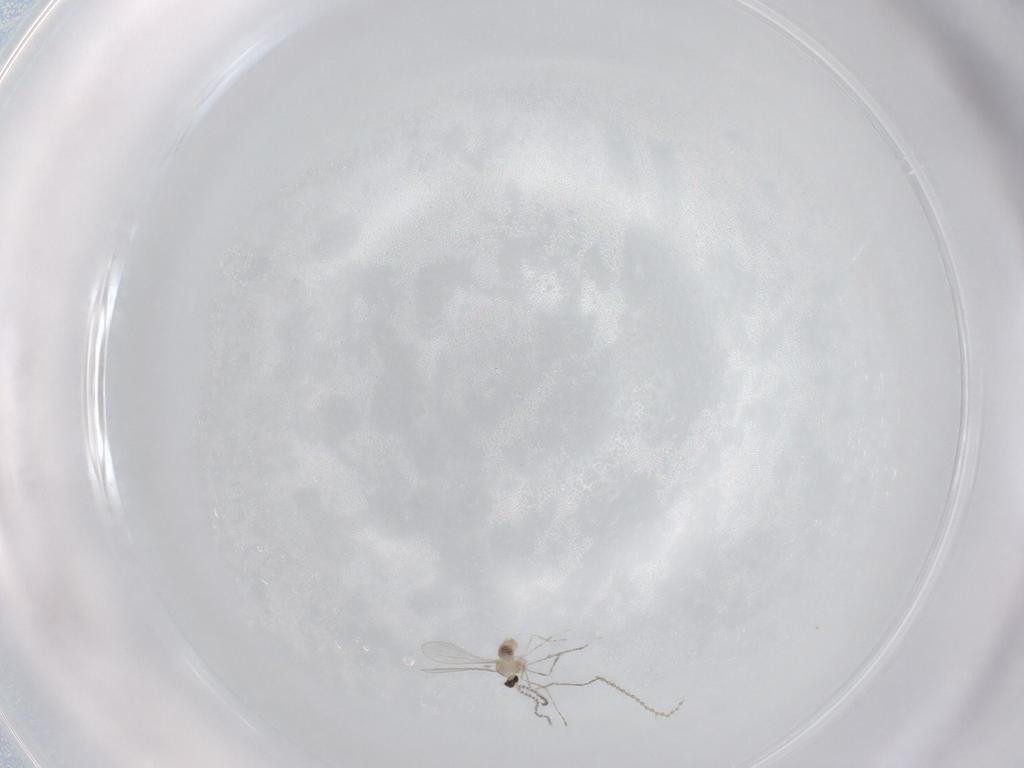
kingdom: Animalia
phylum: Arthropoda
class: Insecta
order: Diptera
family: Cecidomyiidae
